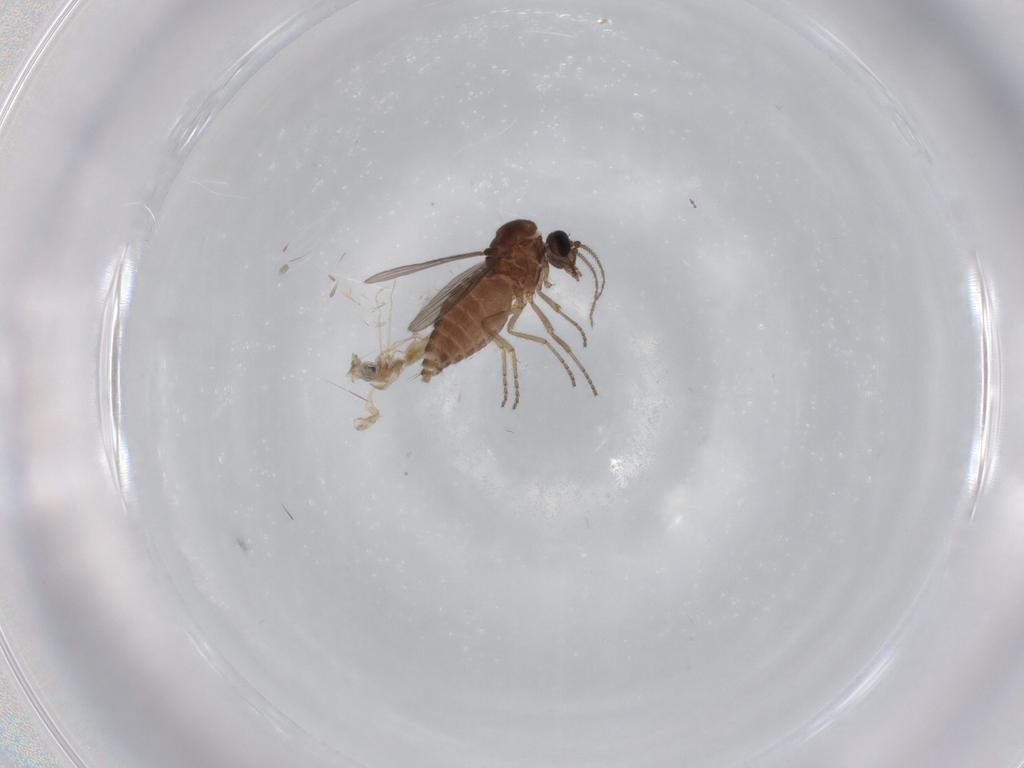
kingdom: Animalia
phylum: Arthropoda
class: Insecta
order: Diptera
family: Ceratopogonidae
